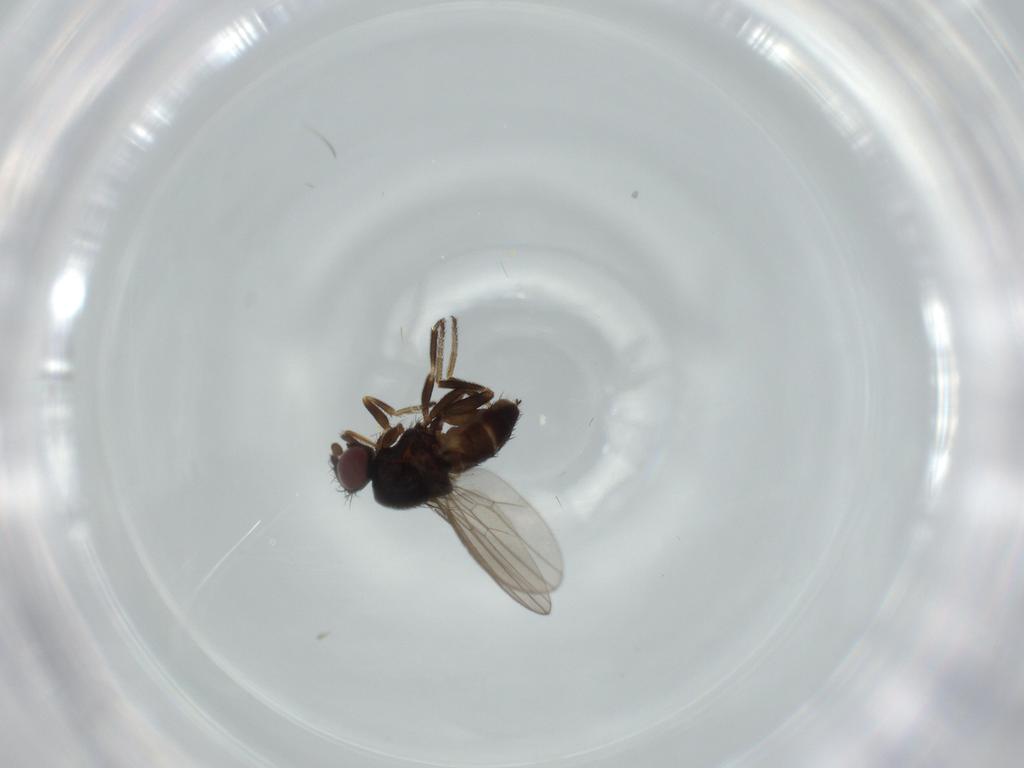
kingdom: Animalia
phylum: Arthropoda
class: Insecta
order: Diptera
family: Milichiidae
